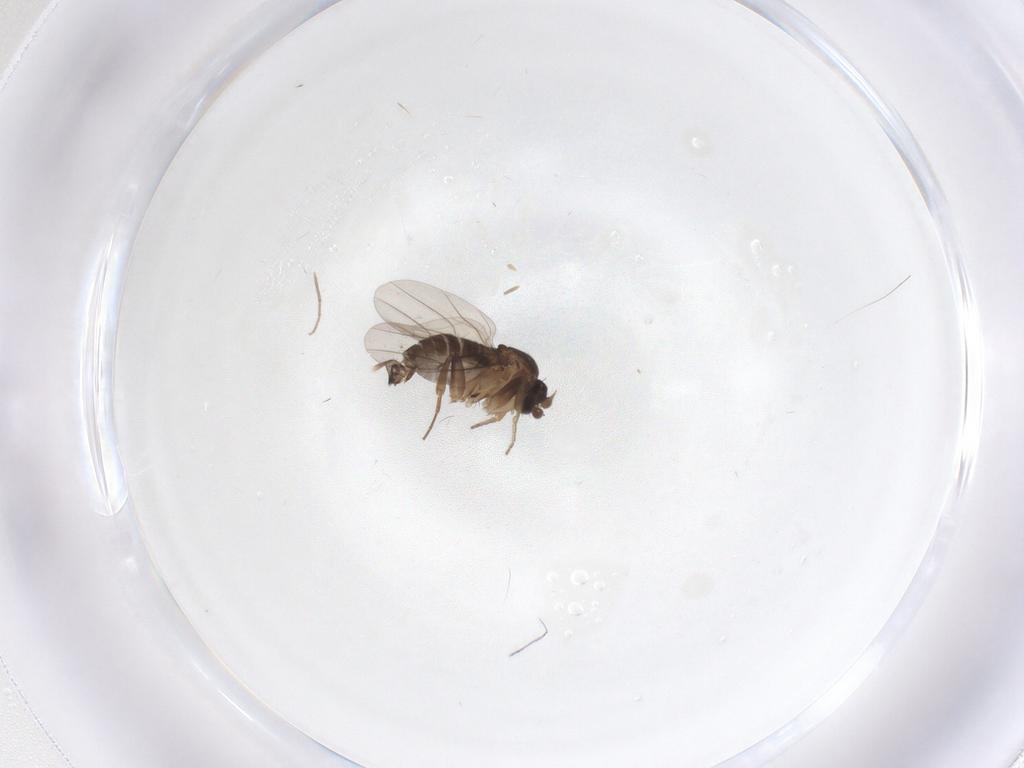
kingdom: Animalia
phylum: Arthropoda
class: Insecta
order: Diptera
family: Phoridae
